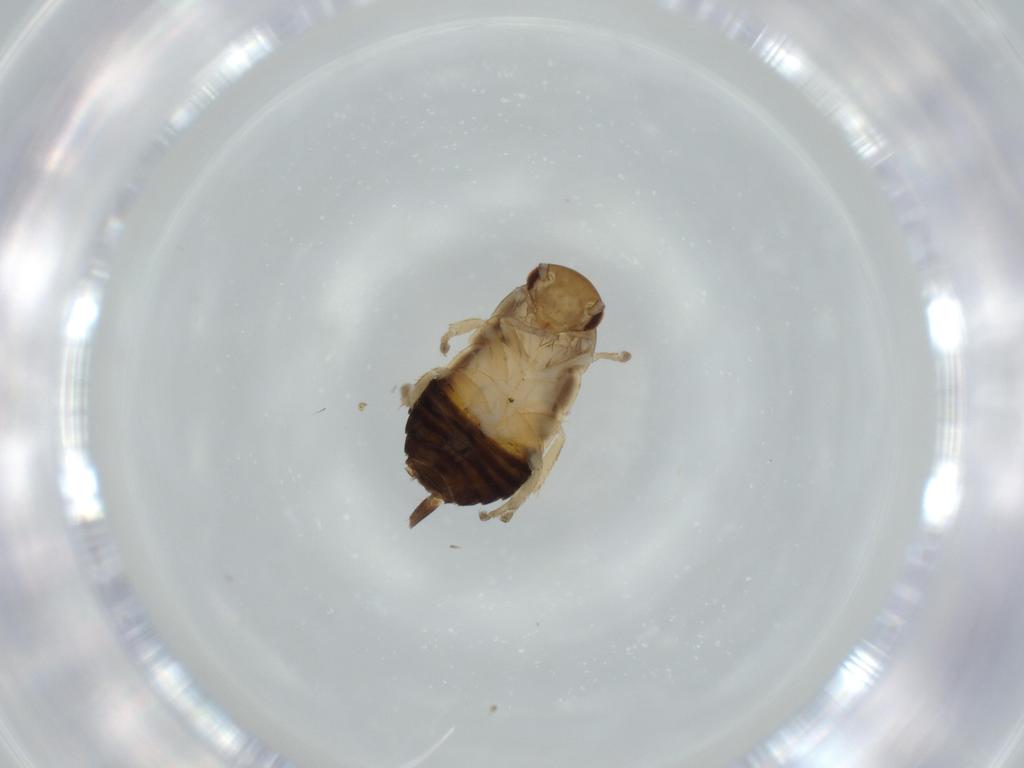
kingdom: Animalia
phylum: Arthropoda
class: Insecta
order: Blattodea
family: Ectobiidae
